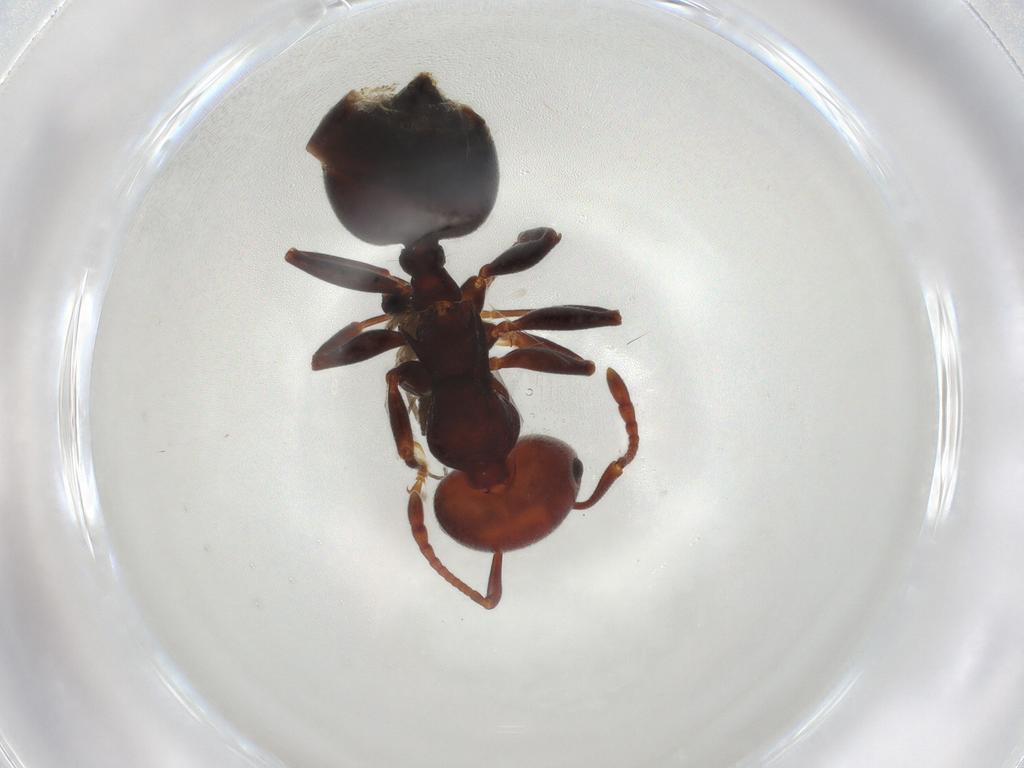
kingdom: Animalia
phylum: Arthropoda
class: Insecta
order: Hymenoptera
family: Formicidae
